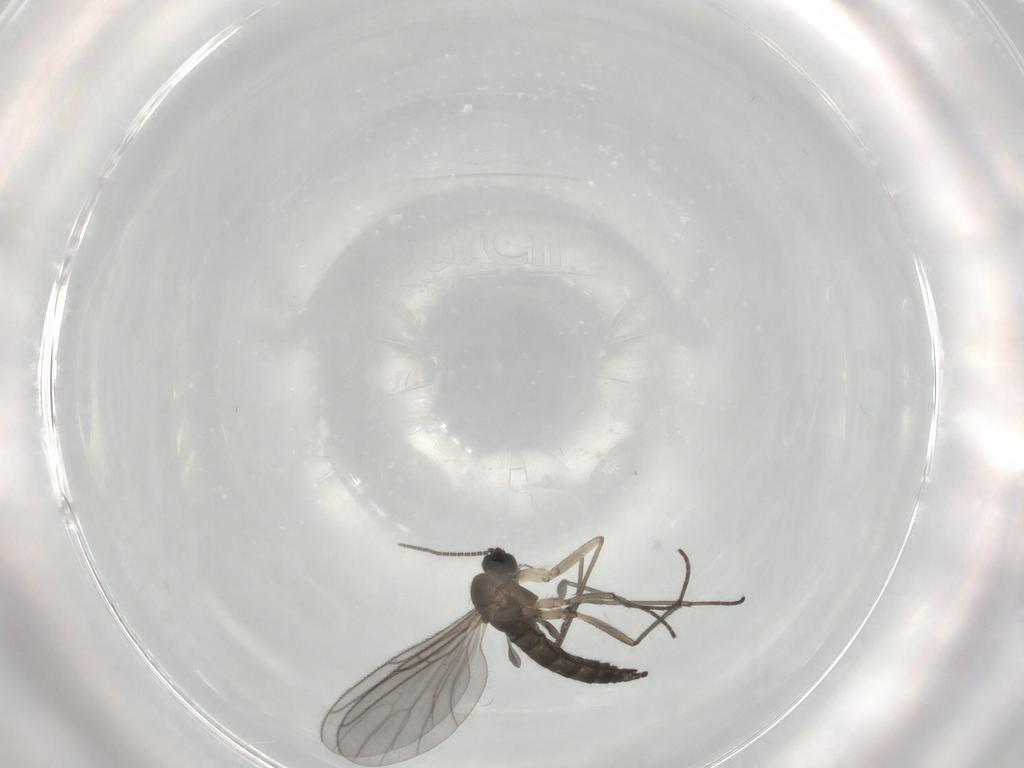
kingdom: Animalia
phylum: Arthropoda
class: Insecta
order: Diptera
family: Sciaridae
